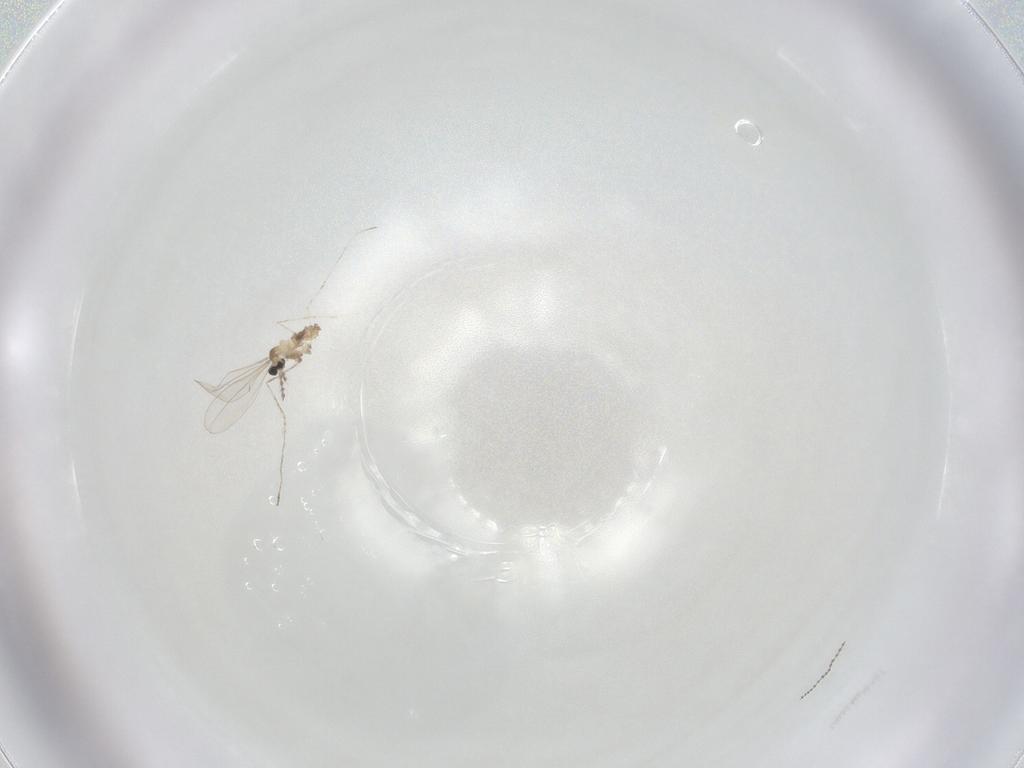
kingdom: Animalia
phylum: Arthropoda
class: Insecta
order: Diptera
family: Cecidomyiidae
